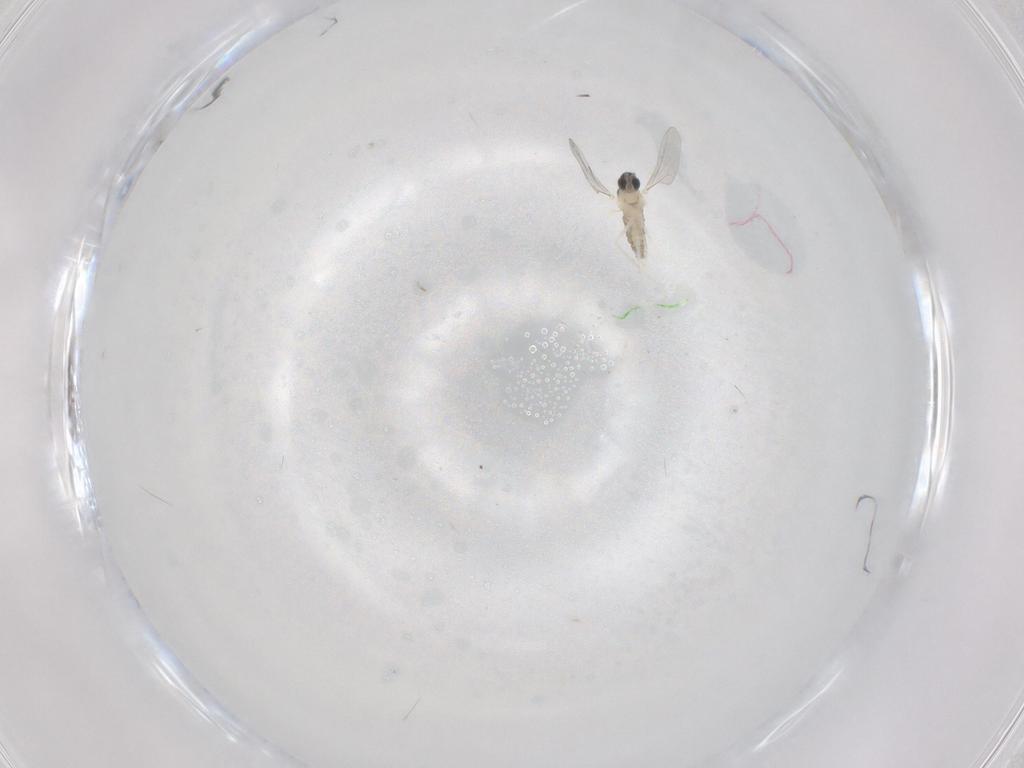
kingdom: Animalia
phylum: Arthropoda
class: Insecta
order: Diptera
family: Cecidomyiidae
